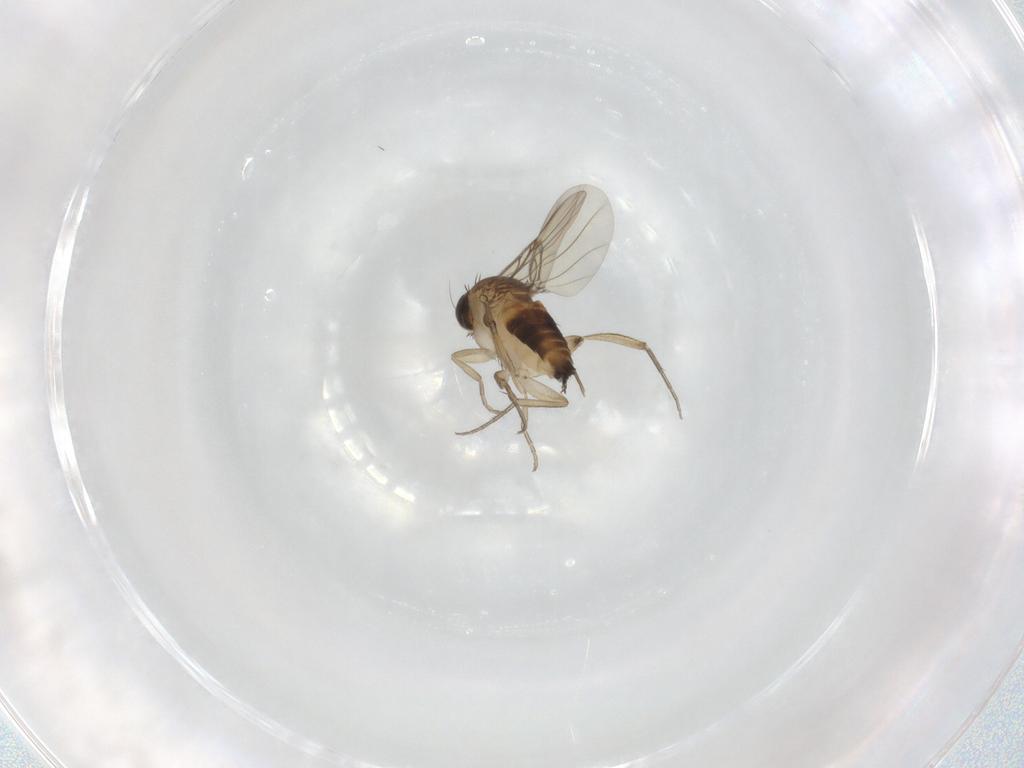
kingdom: Animalia
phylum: Arthropoda
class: Insecta
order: Diptera
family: Phoridae
